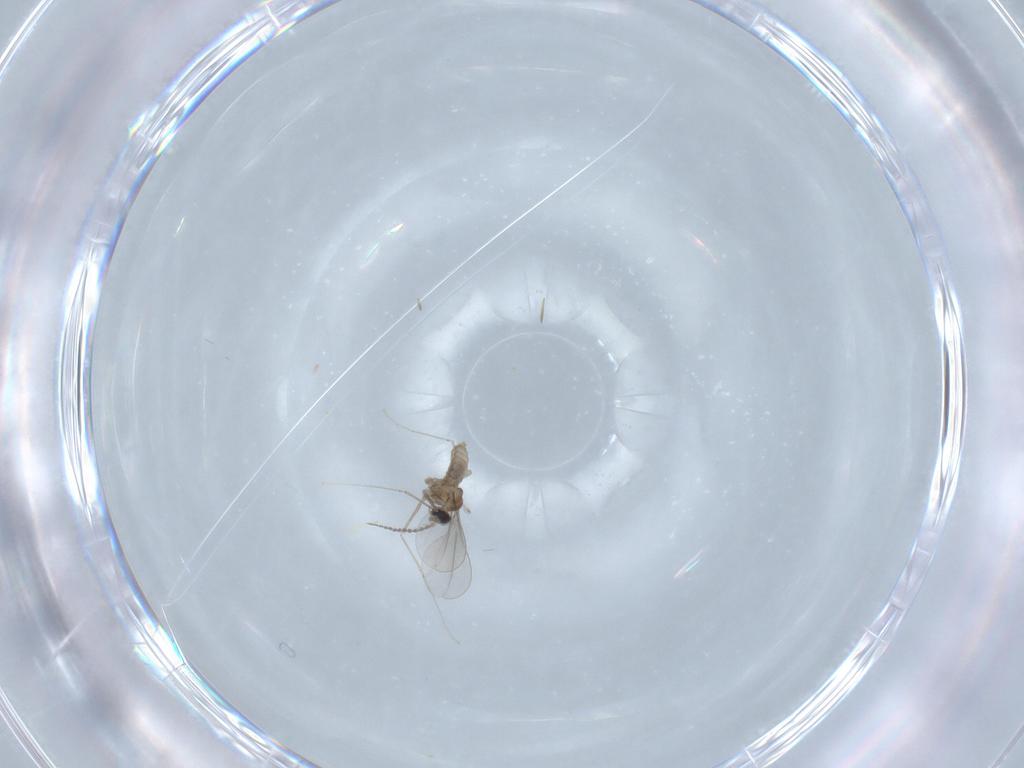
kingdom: Animalia
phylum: Arthropoda
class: Insecta
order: Diptera
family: Cecidomyiidae
